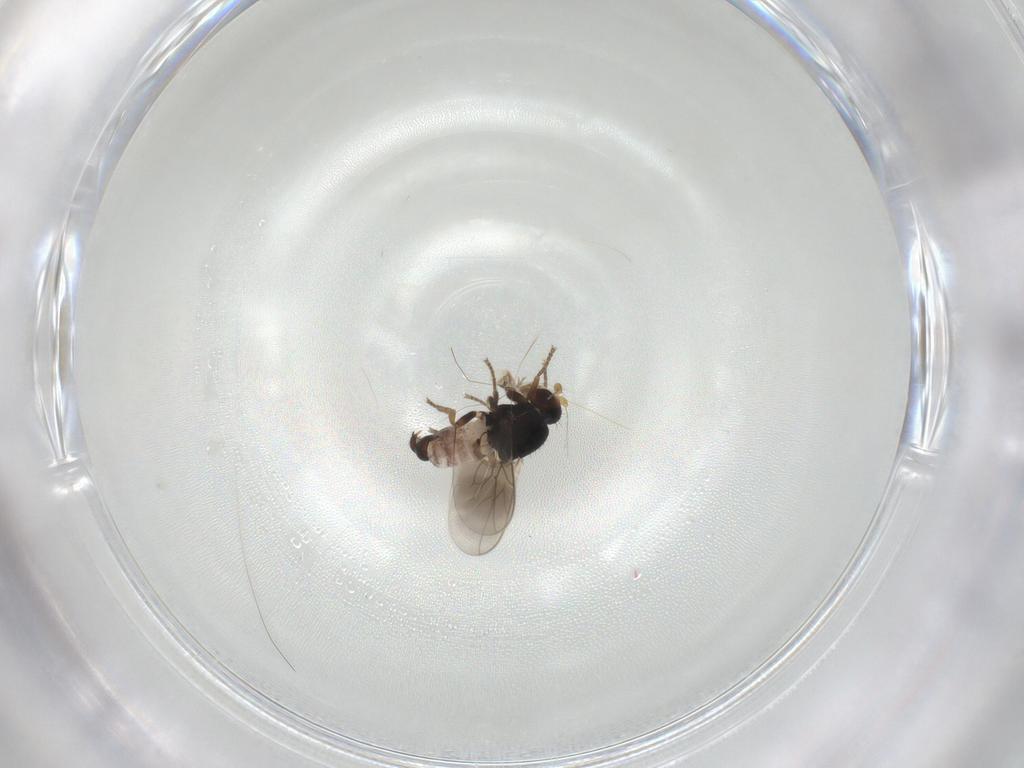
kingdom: Animalia
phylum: Arthropoda
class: Insecta
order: Diptera
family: Sphaeroceridae
